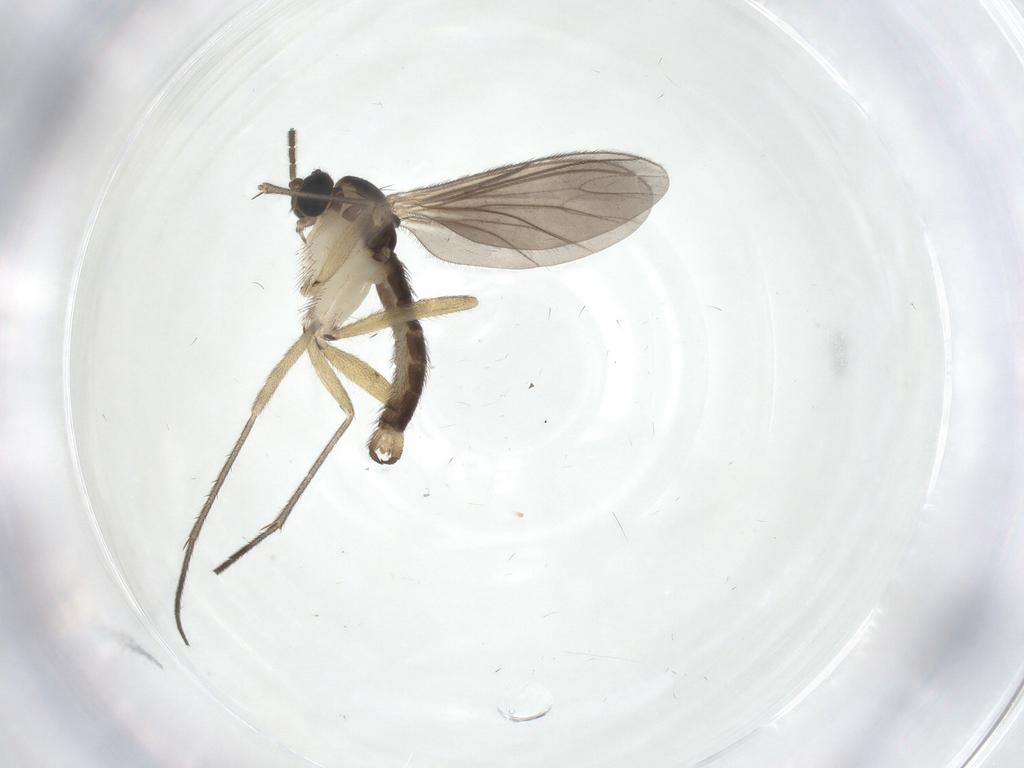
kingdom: Animalia
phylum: Arthropoda
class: Insecta
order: Diptera
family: Sciaridae
